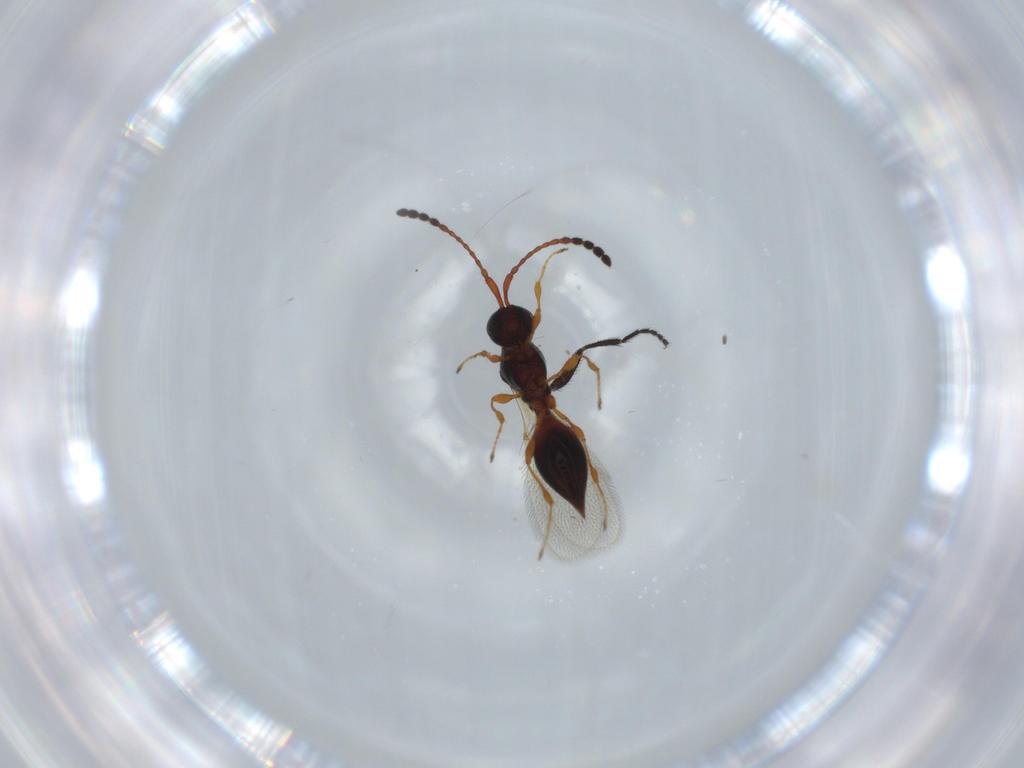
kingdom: Animalia
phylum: Arthropoda
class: Insecta
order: Hymenoptera
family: Diapriidae
